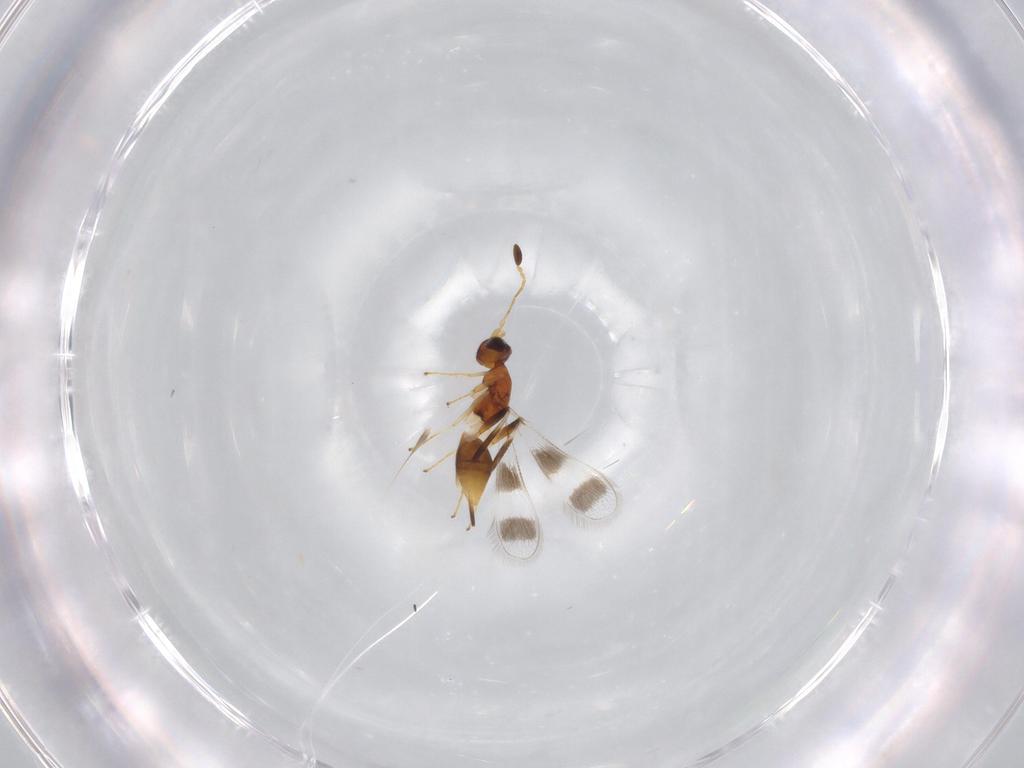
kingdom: Animalia
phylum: Arthropoda
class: Insecta
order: Hymenoptera
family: Mymaridae
